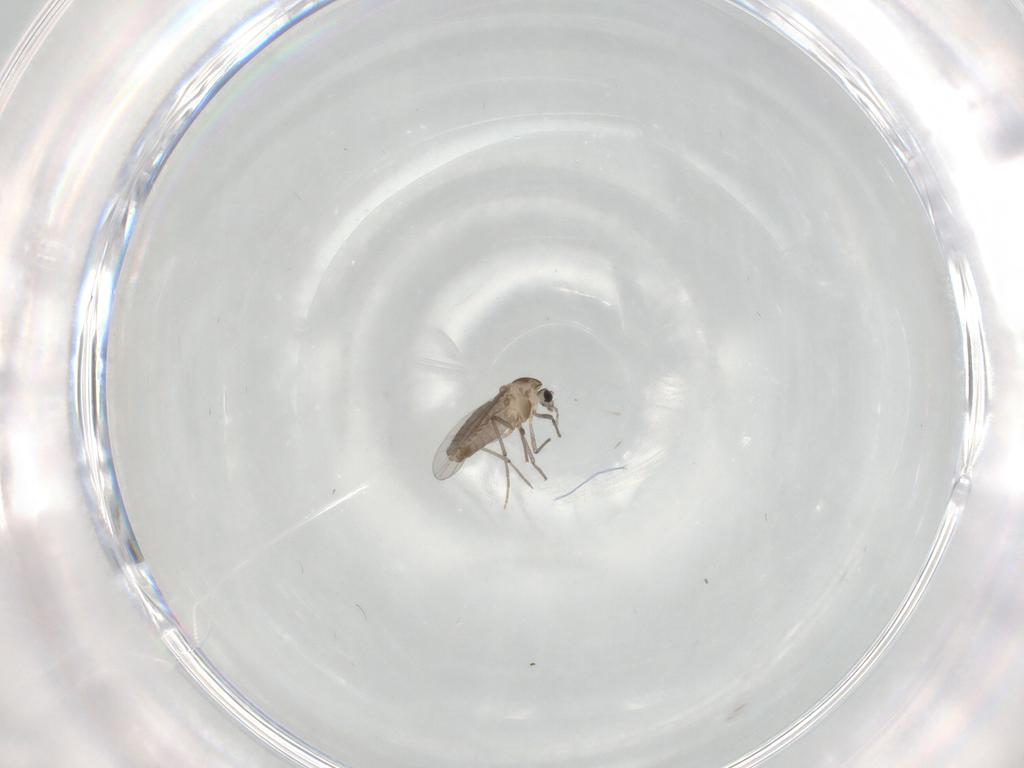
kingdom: Animalia
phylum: Arthropoda
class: Insecta
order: Diptera
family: Cecidomyiidae
